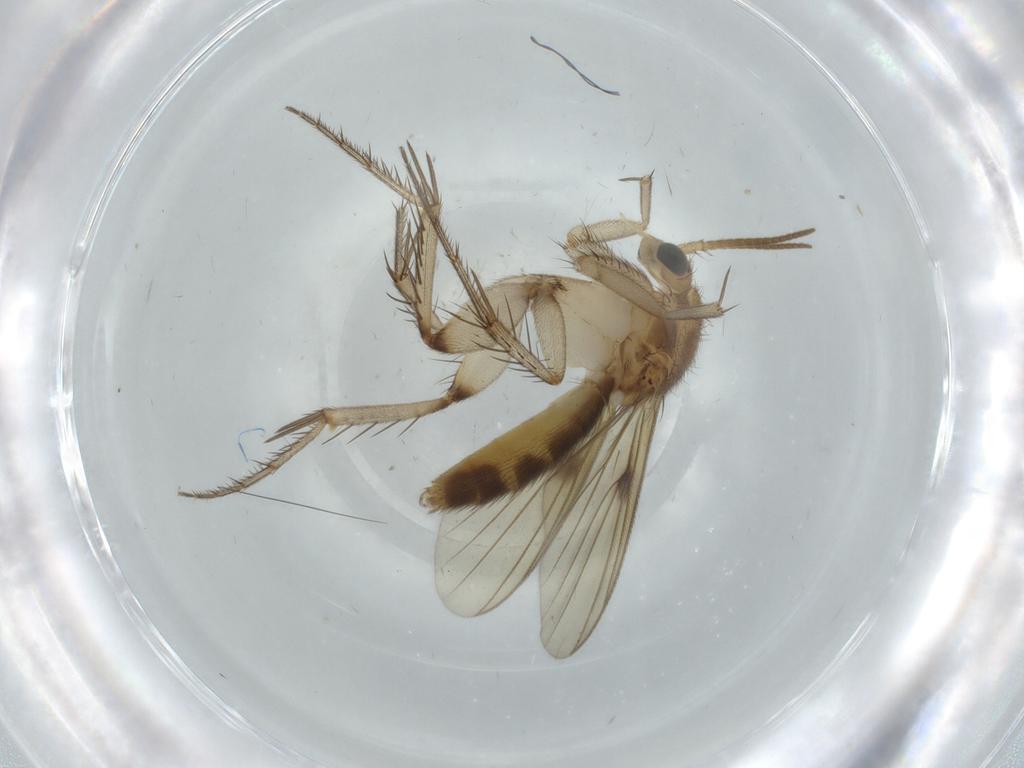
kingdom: Animalia
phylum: Arthropoda
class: Insecta
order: Diptera
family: Mycetophilidae
